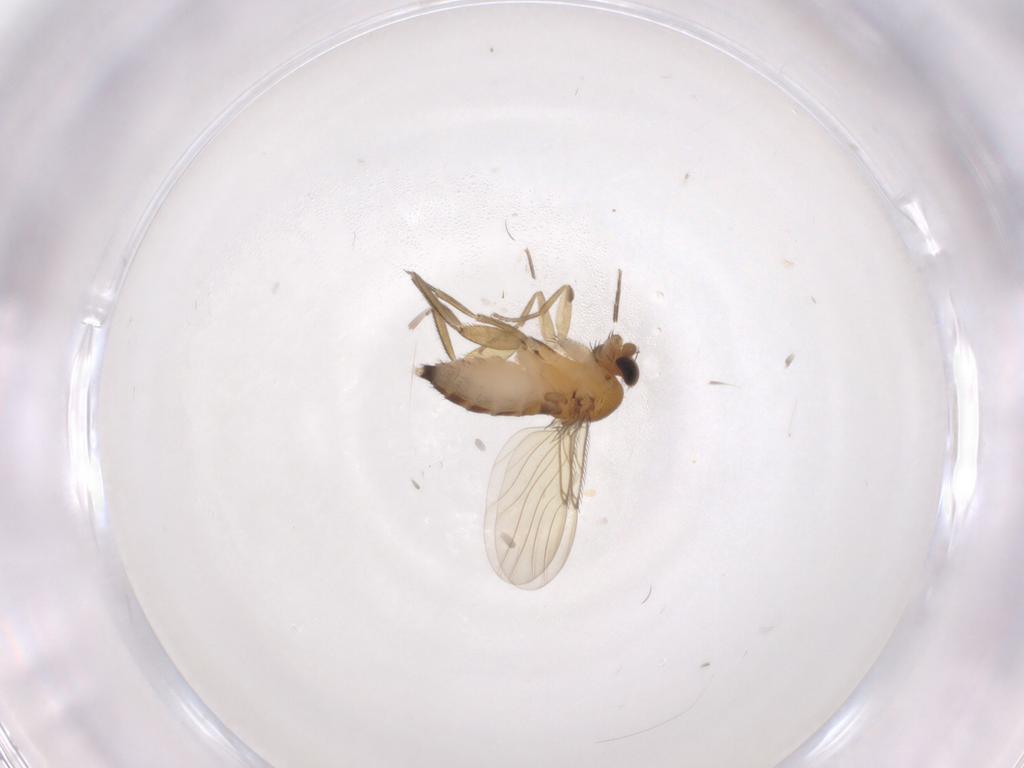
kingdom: Animalia
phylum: Arthropoda
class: Insecta
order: Diptera
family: Phoridae
